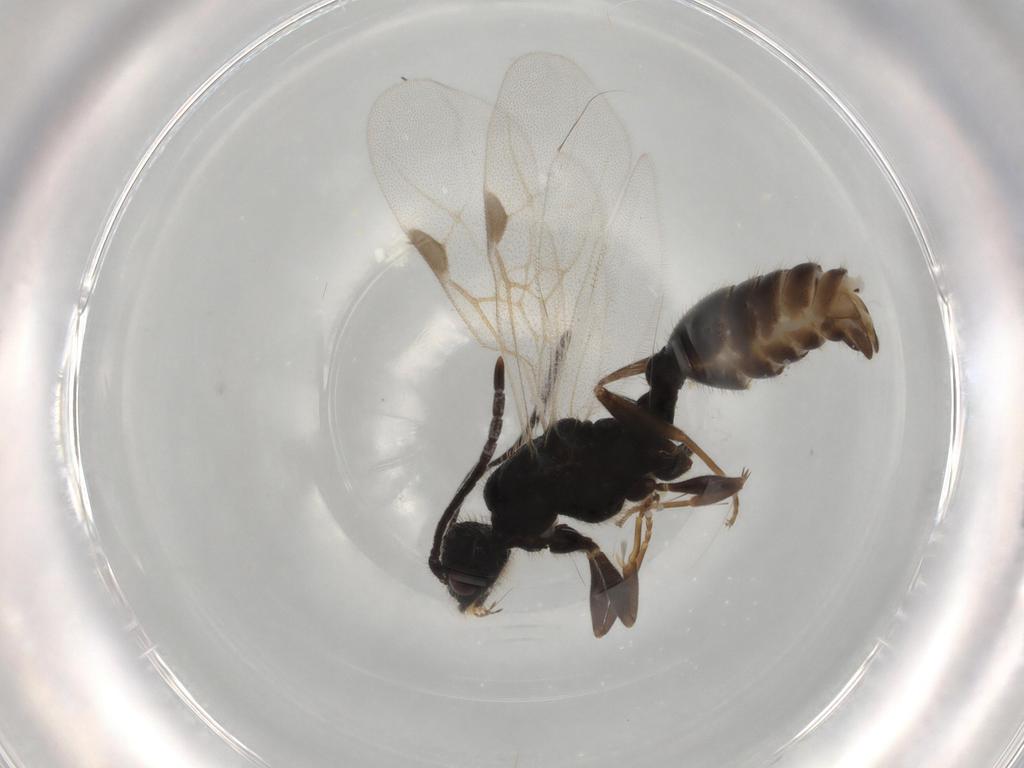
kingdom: Animalia
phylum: Arthropoda
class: Insecta
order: Hymenoptera
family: Formicidae
